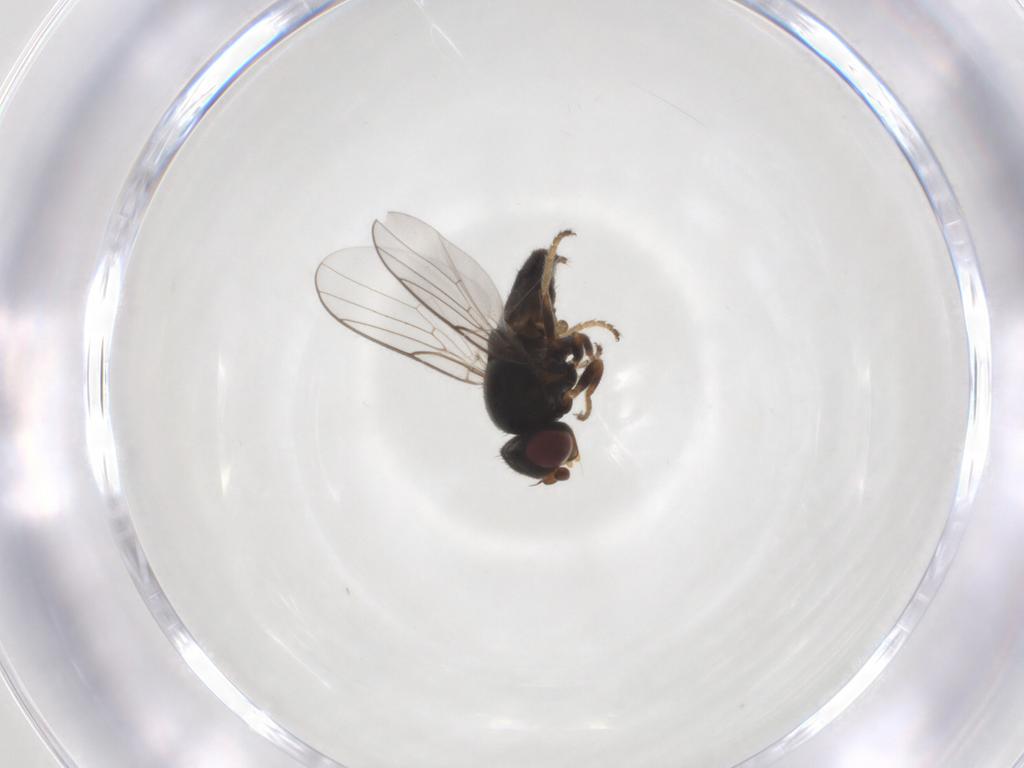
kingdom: Animalia
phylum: Arthropoda
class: Insecta
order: Diptera
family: Chloropidae
